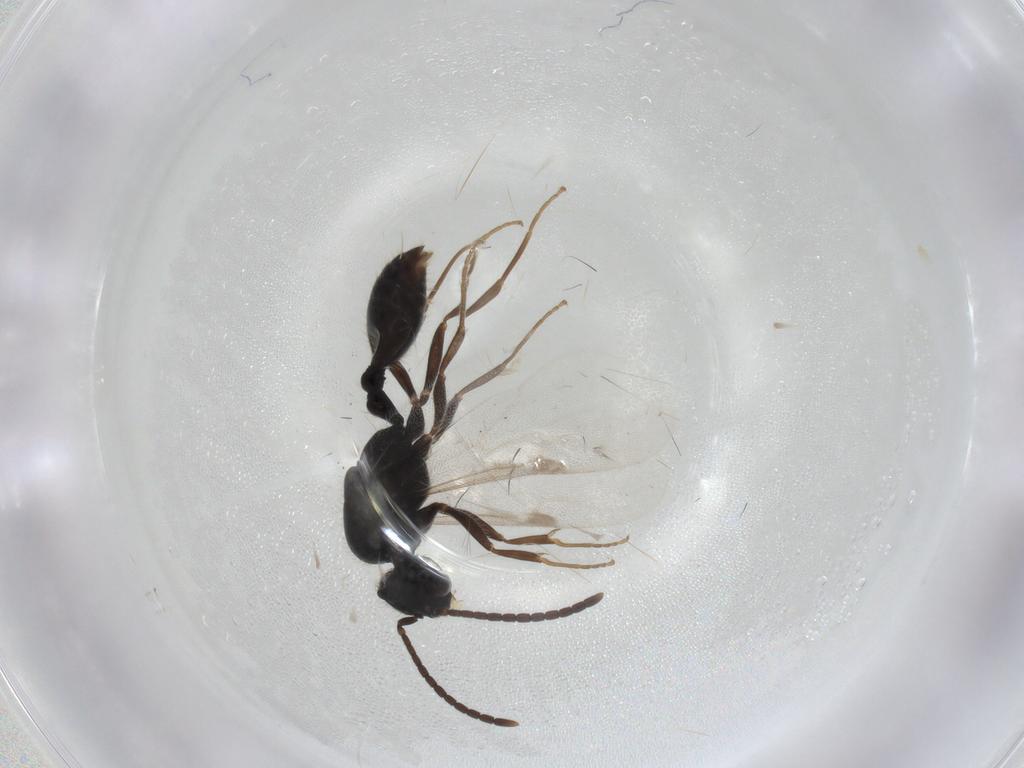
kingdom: Animalia
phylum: Arthropoda
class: Insecta
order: Hymenoptera
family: Formicidae
